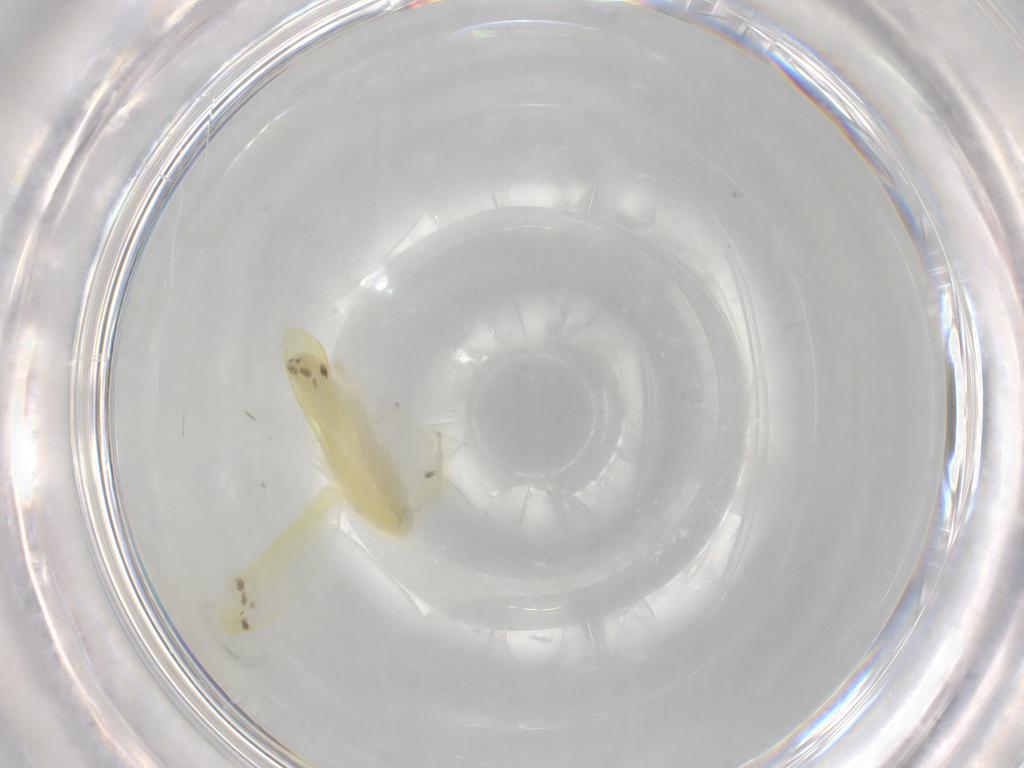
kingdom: Animalia
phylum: Arthropoda
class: Insecta
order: Hemiptera
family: Cicadellidae
